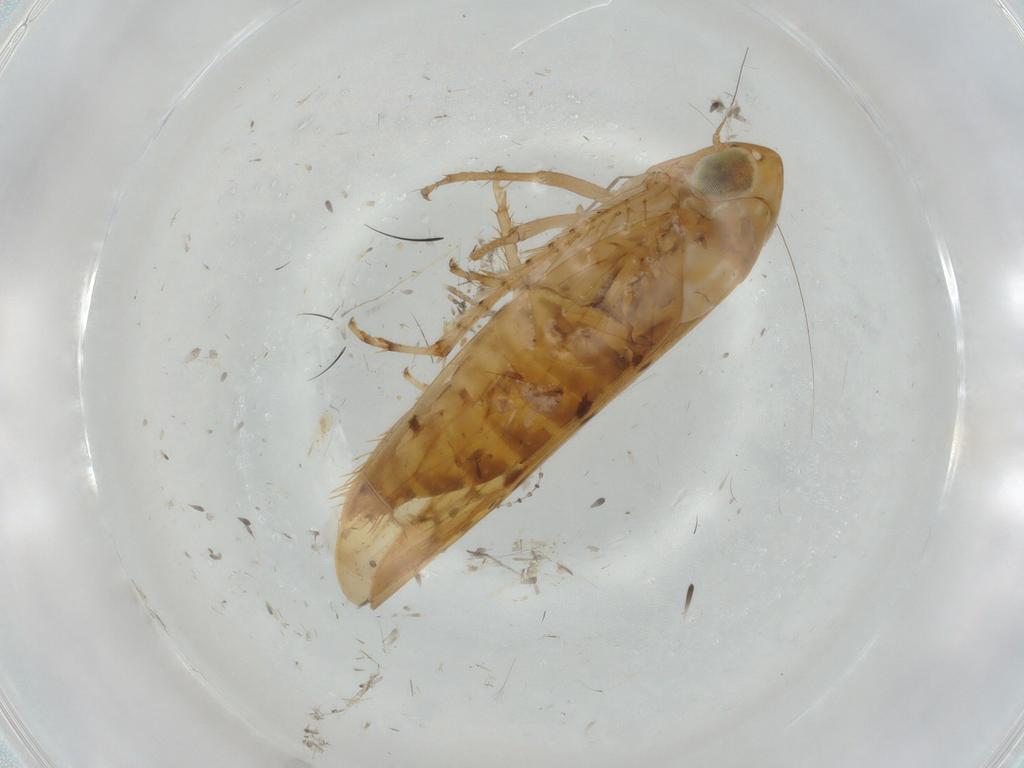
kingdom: Animalia
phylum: Arthropoda
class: Insecta
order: Hemiptera
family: Cicadellidae
